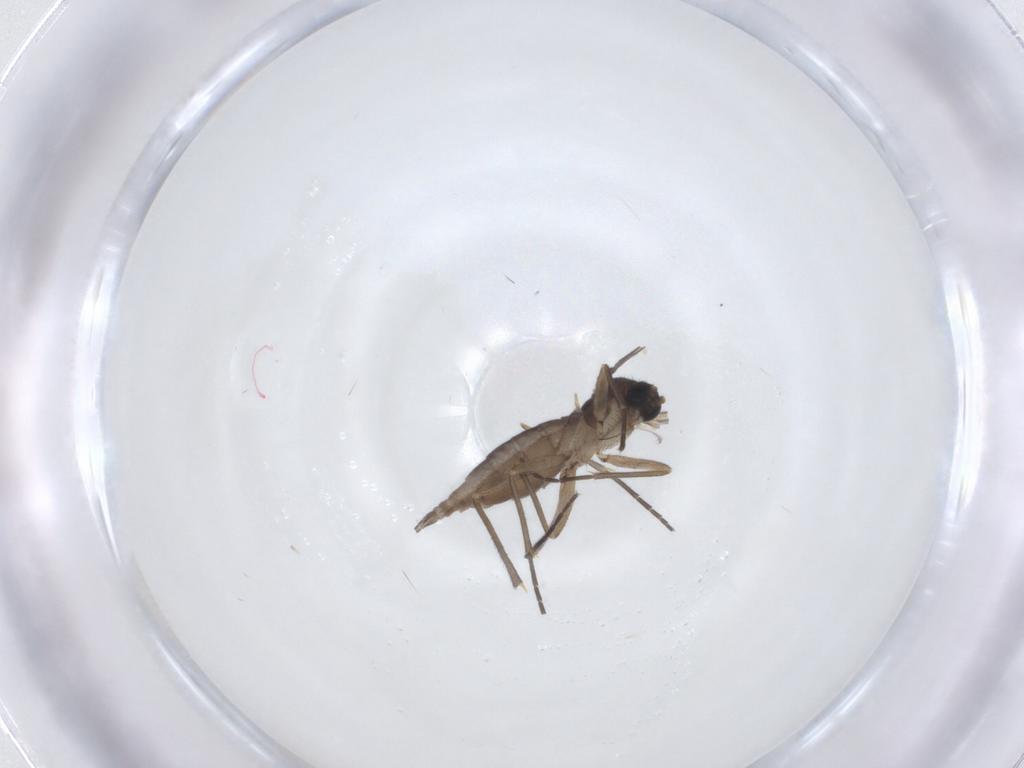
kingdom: Animalia
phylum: Arthropoda
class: Insecta
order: Diptera
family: Sciaridae
